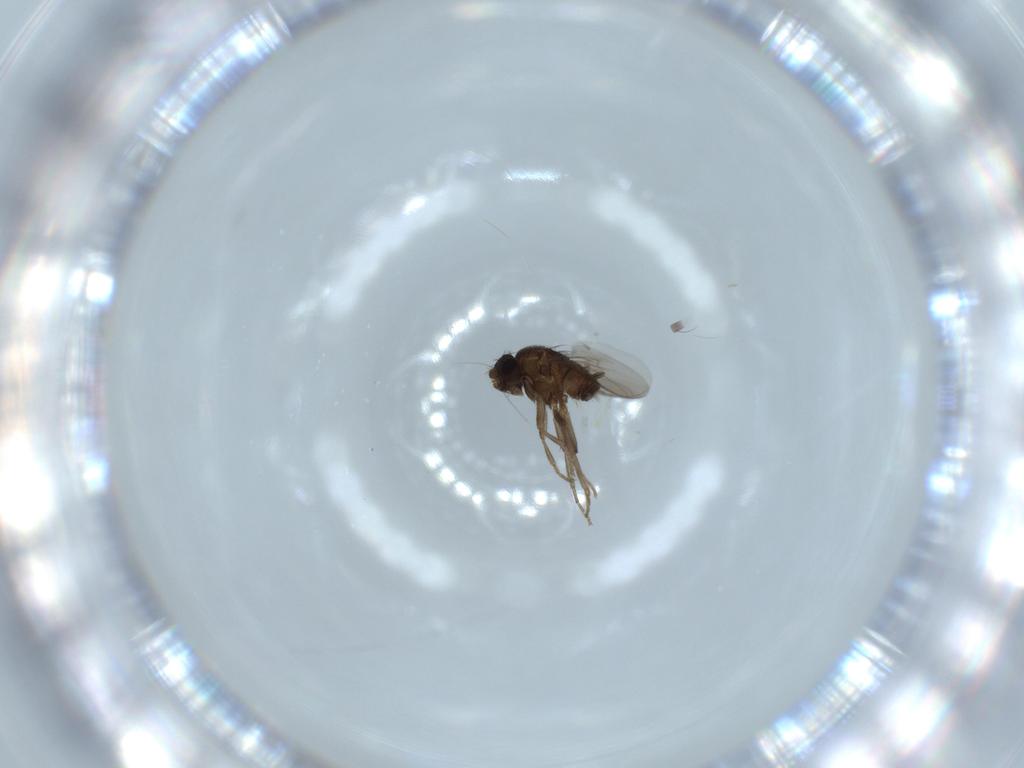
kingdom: Animalia
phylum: Arthropoda
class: Insecta
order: Diptera
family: Sphaeroceridae
